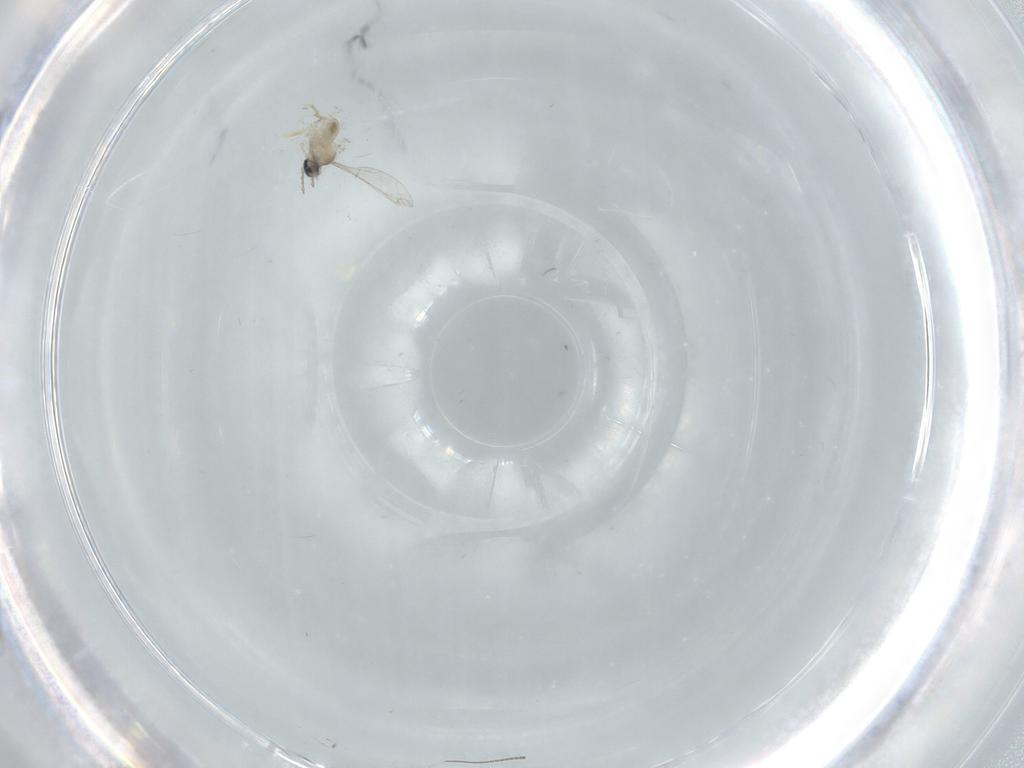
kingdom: Animalia
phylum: Arthropoda
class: Insecta
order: Diptera
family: Cecidomyiidae
